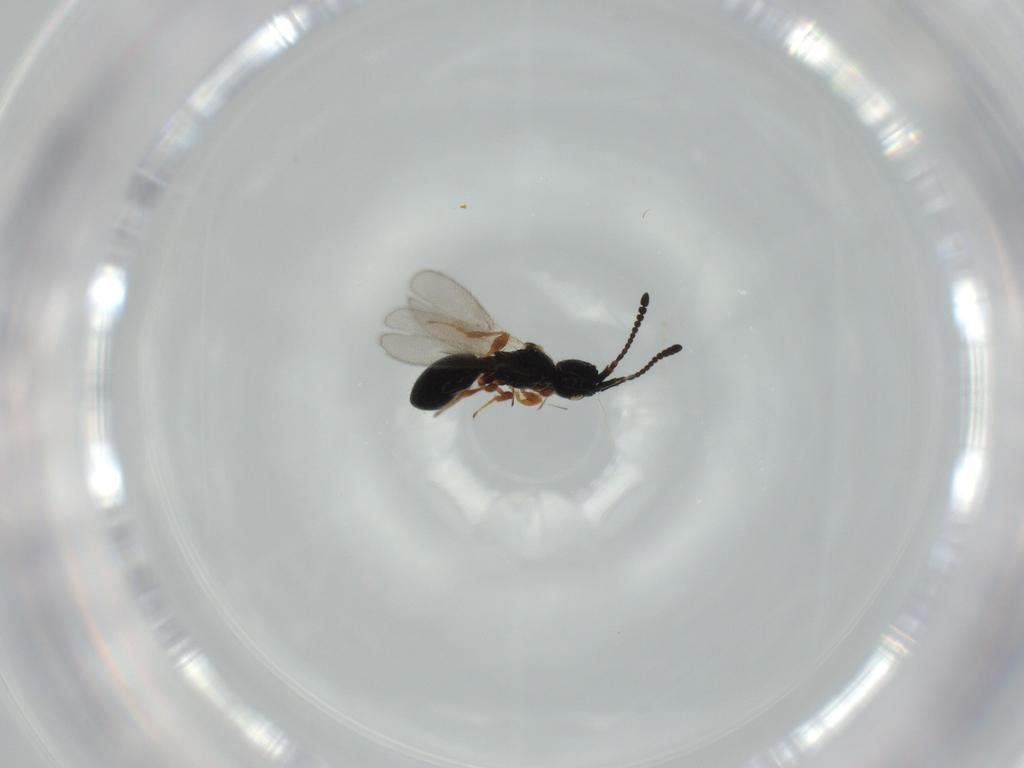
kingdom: Animalia
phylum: Arthropoda
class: Insecta
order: Hymenoptera
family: Diapriidae
